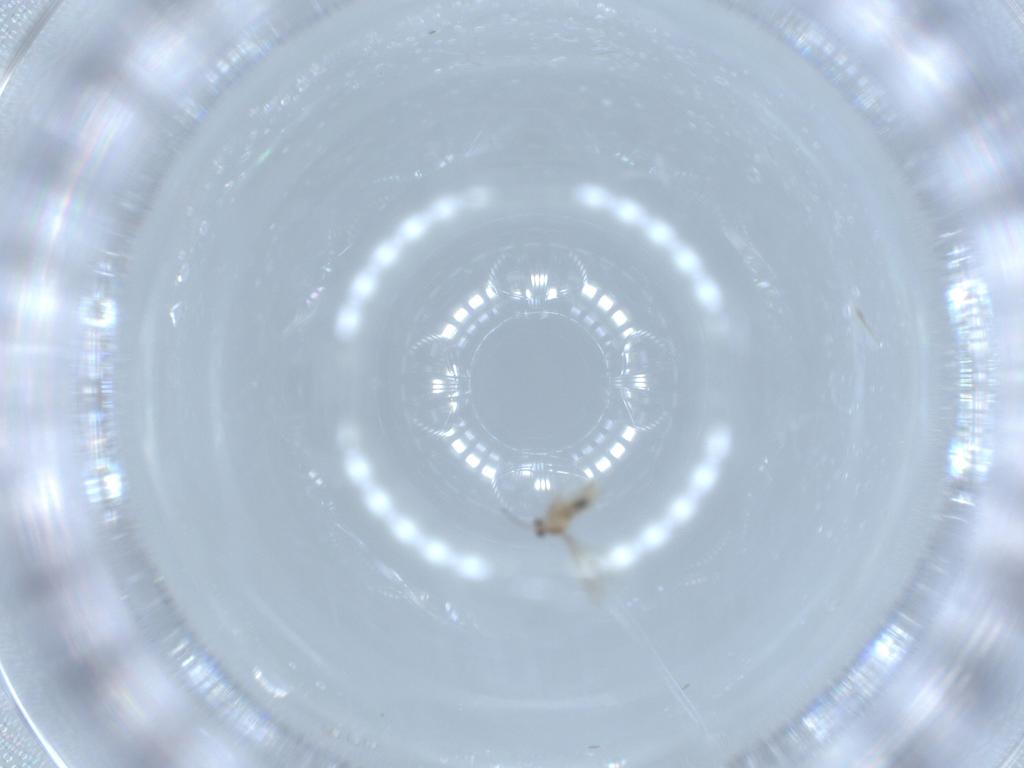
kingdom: Animalia
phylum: Arthropoda
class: Insecta
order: Diptera
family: Cecidomyiidae
